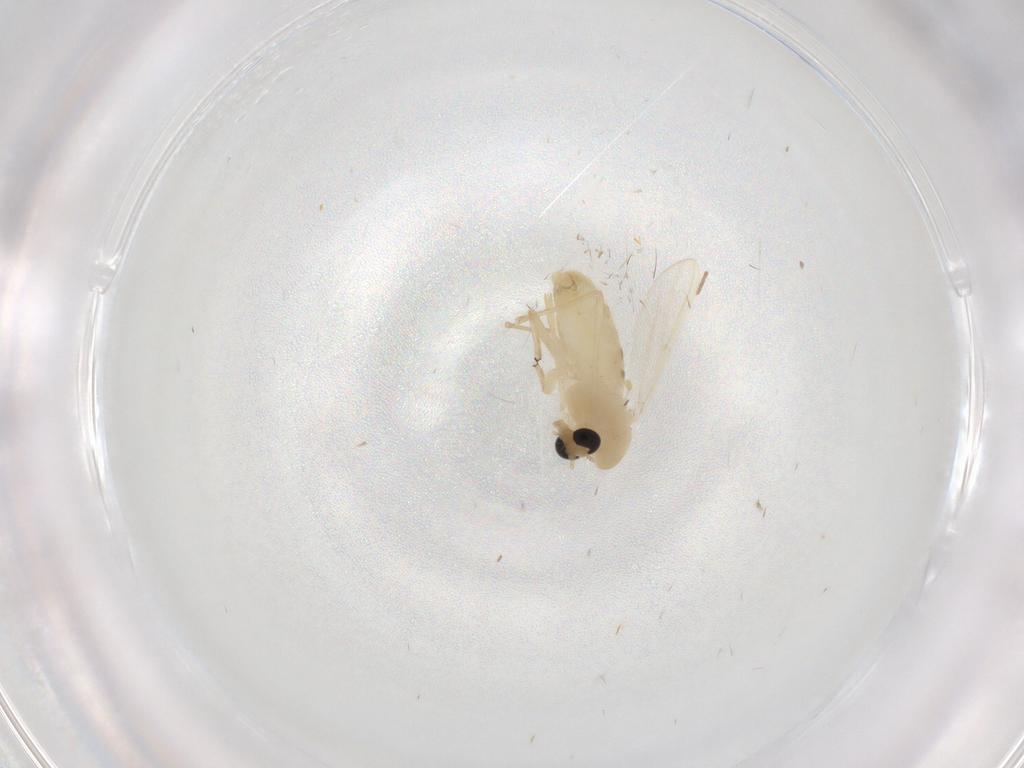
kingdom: Animalia
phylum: Arthropoda
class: Insecta
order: Diptera
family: Chironomidae
